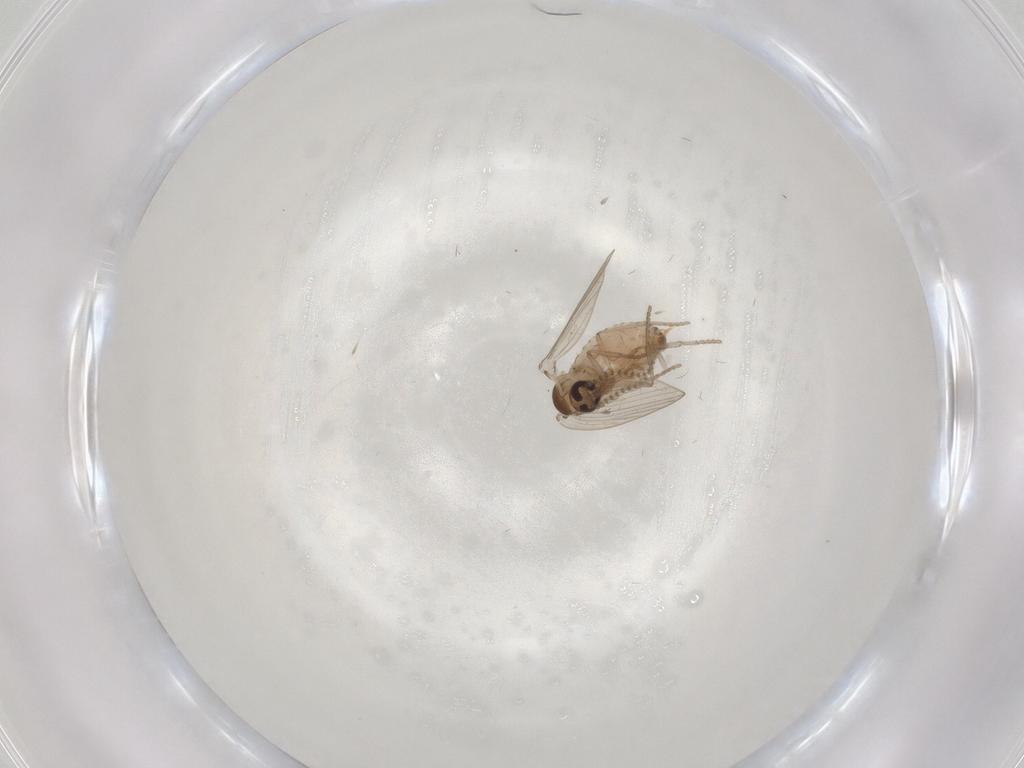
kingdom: Animalia
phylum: Arthropoda
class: Insecta
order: Diptera
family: Psychodidae
